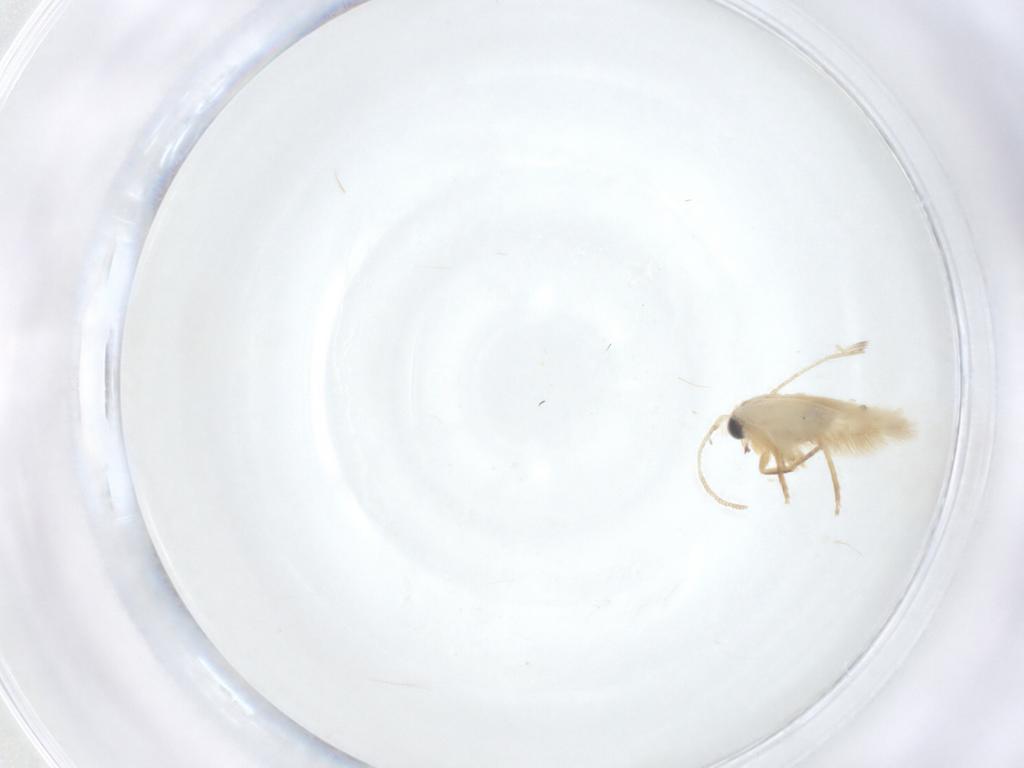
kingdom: Animalia
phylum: Arthropoda
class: Insecta
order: Lepidoptera
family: Nepticulidae
